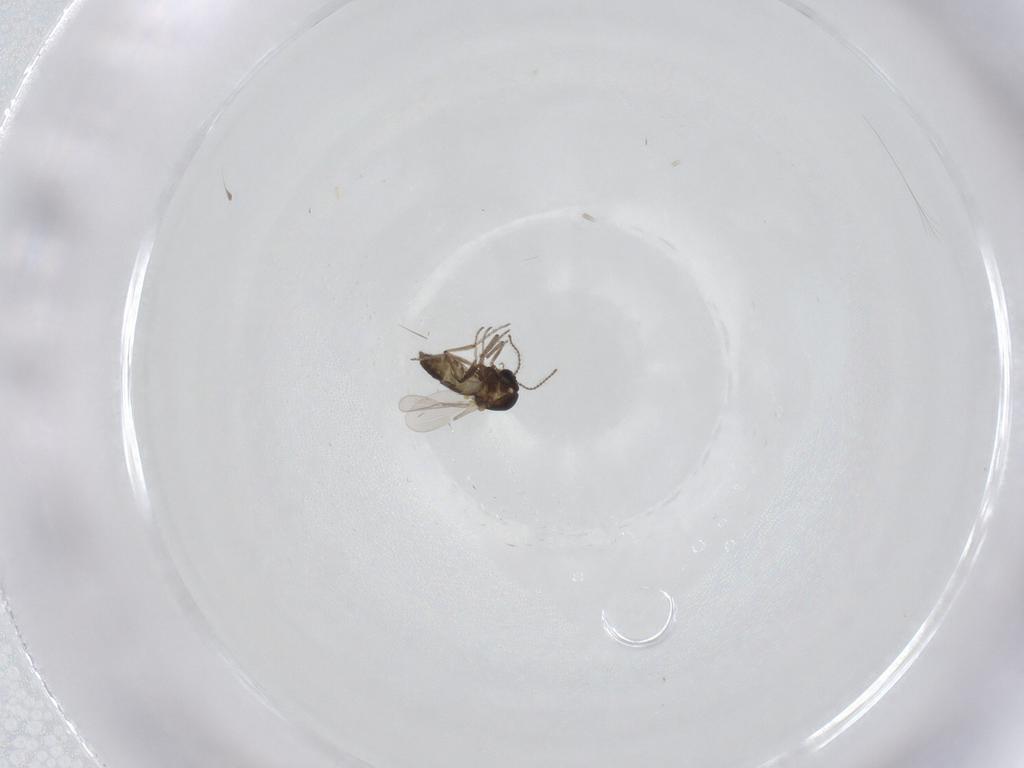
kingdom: Animalia
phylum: Arthropoda
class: Insecta
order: Diptera
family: Ceratopogonidae
